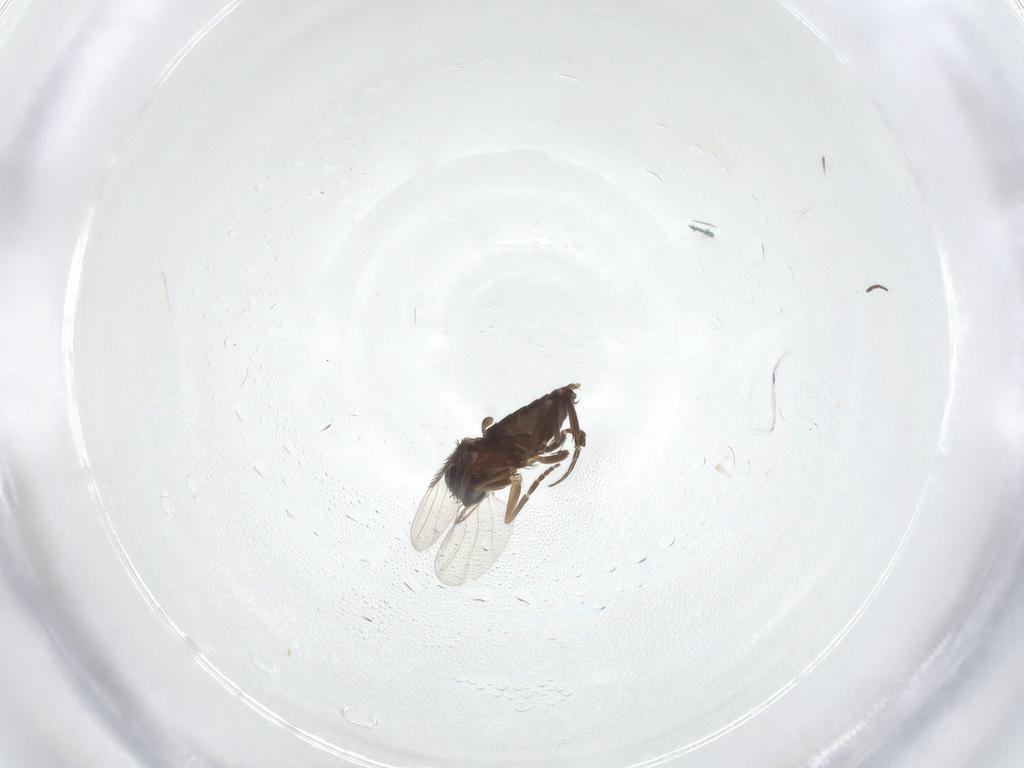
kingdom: Animalia
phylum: Arthropoda
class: Insecta
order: Diptera
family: Phoridae
